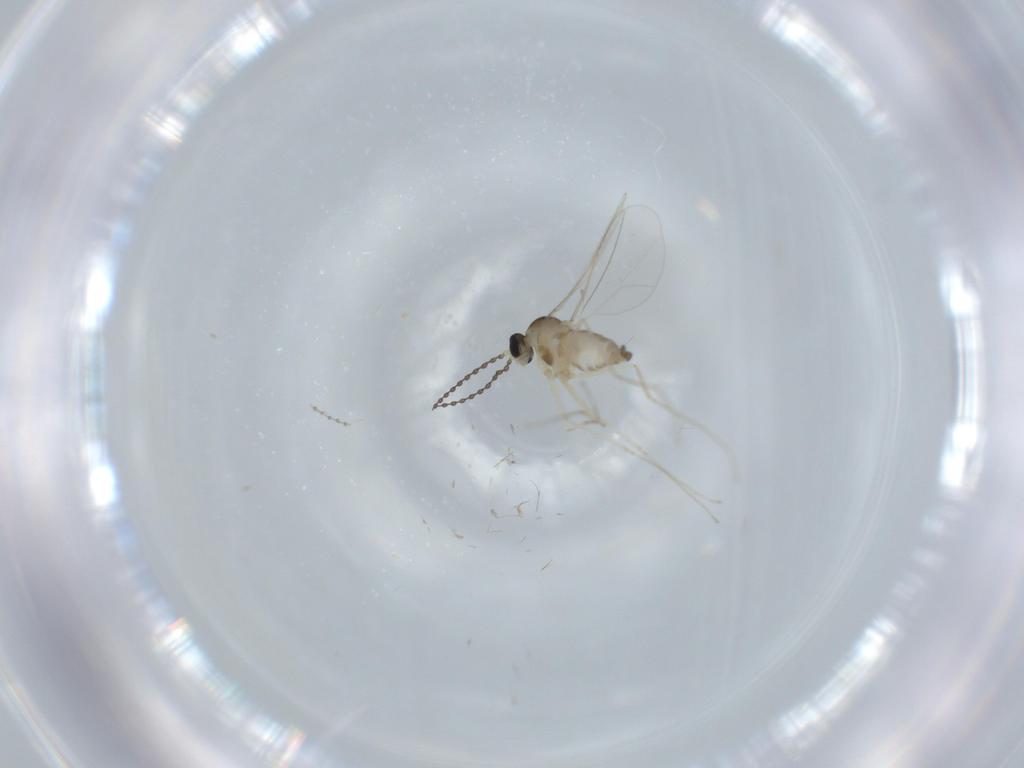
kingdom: Animalia
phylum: Arthropoda
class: Insecta
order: Diptera
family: Cecidomyiidae
